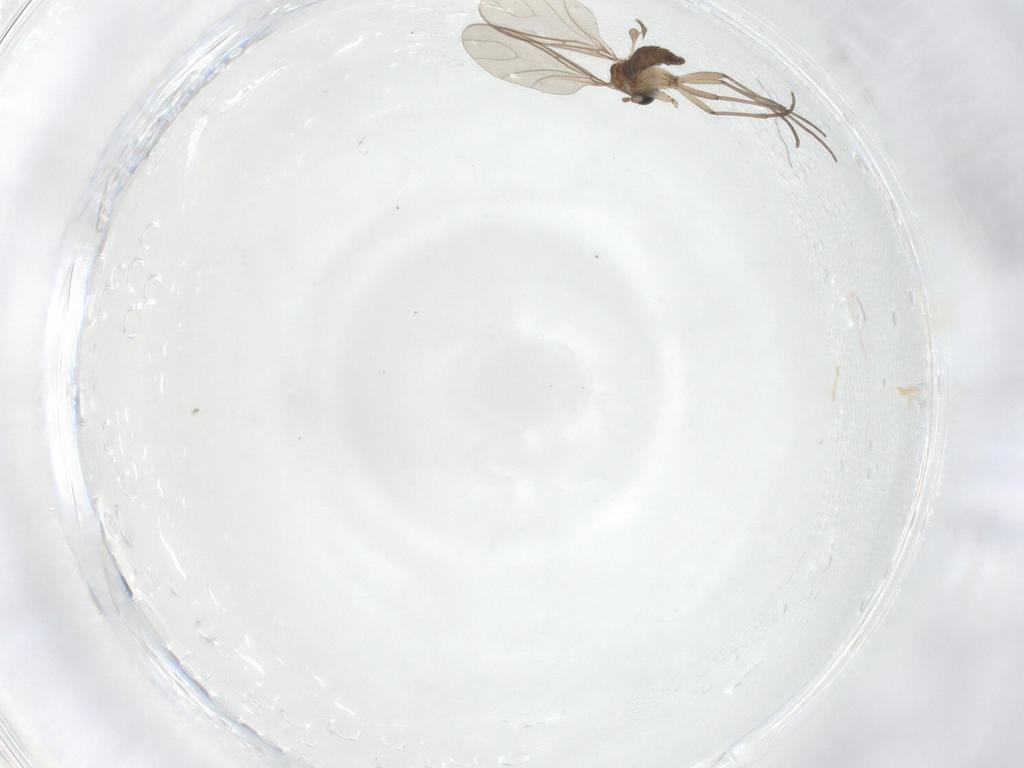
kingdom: Animalia
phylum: Arthropoda
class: Insecta
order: Diptera
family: Sciaridae
